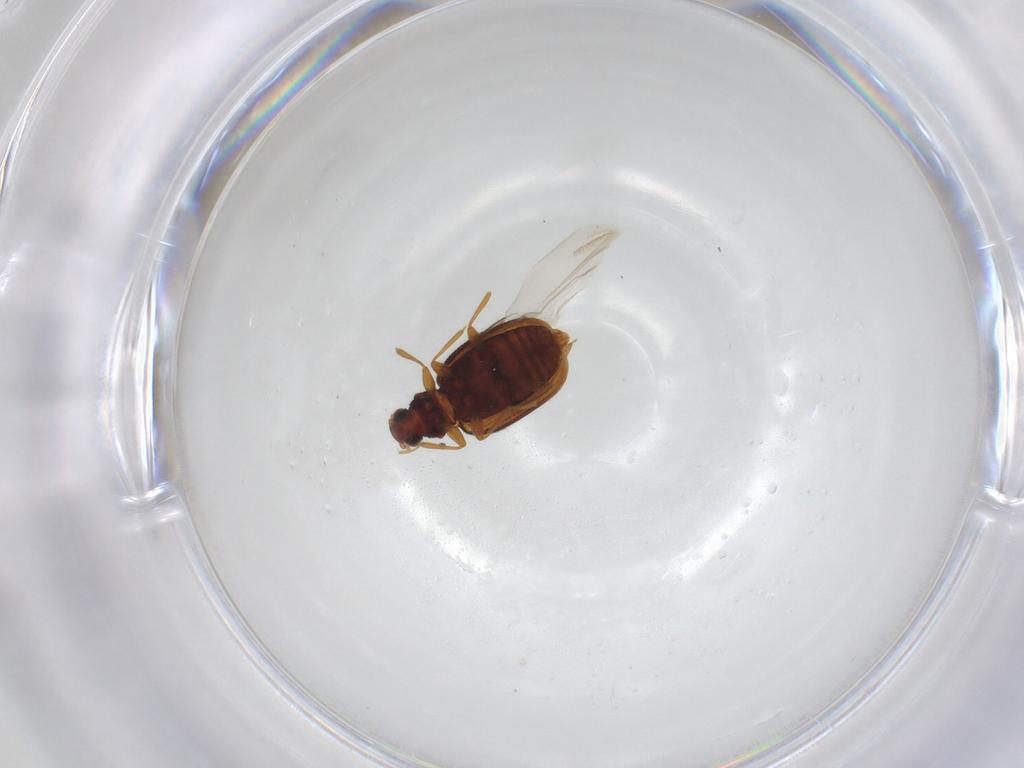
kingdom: Animalia
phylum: Arthropoda
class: Insecta
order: Coleoptera
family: Latridiidae
